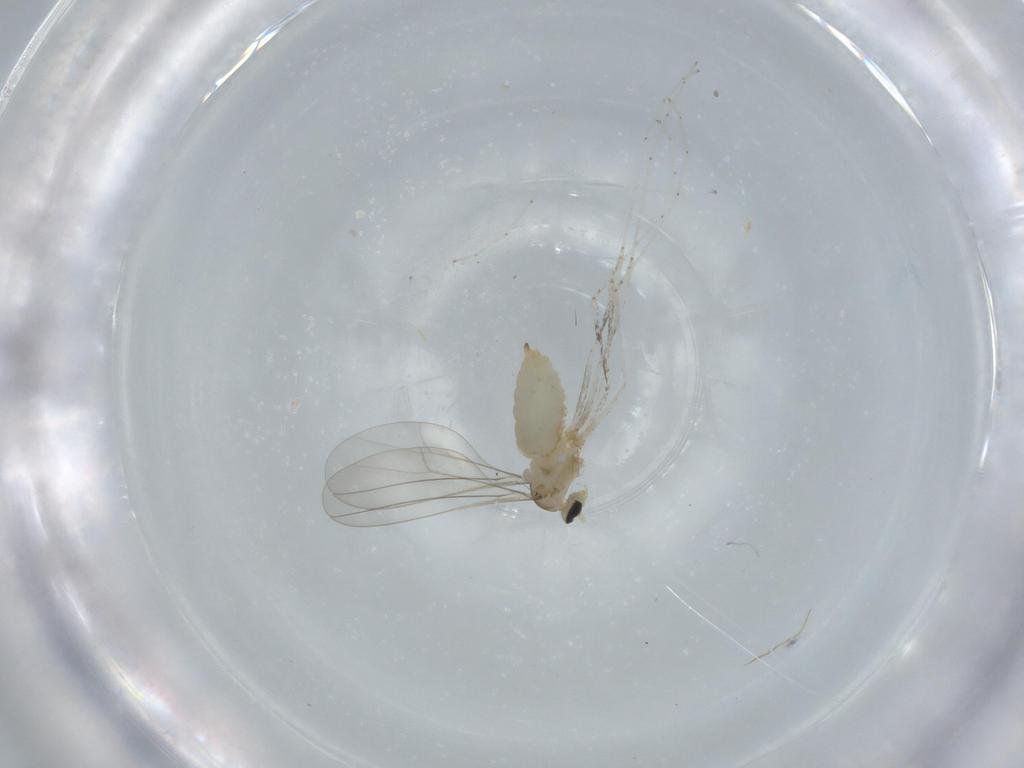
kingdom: Animalia
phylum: Arthropoda
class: Insecta
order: Diptera
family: Cecidomyiidae
